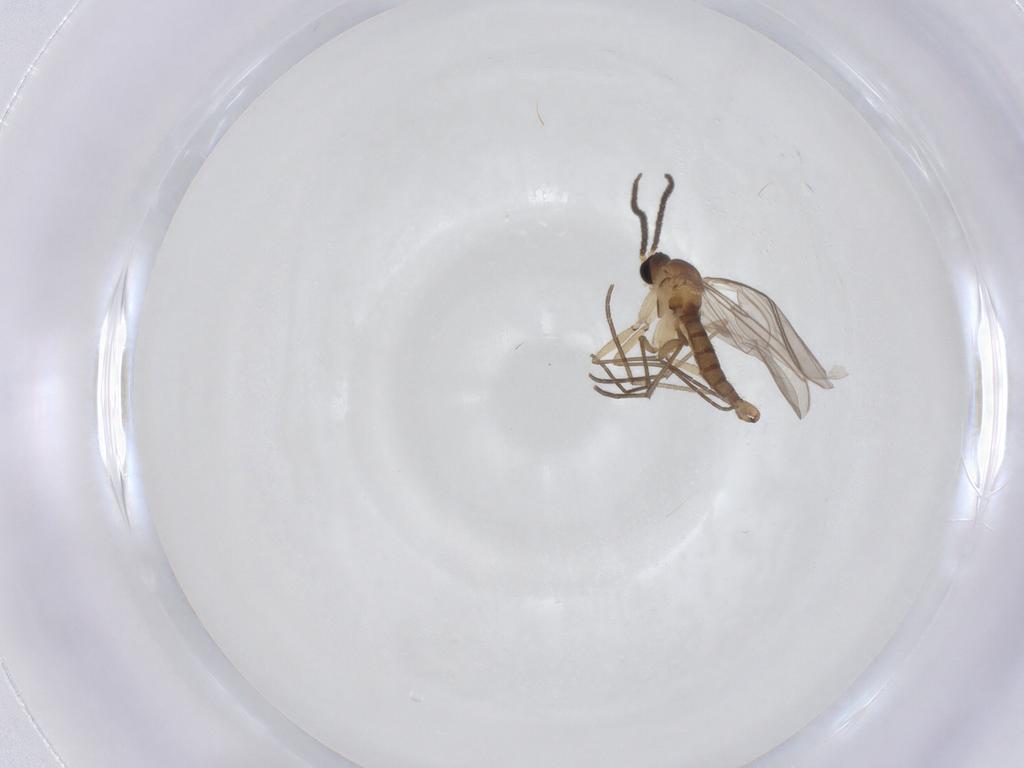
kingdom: Animalia
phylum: Arthropoda
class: Insecta
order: Diptera
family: Sciaridae
